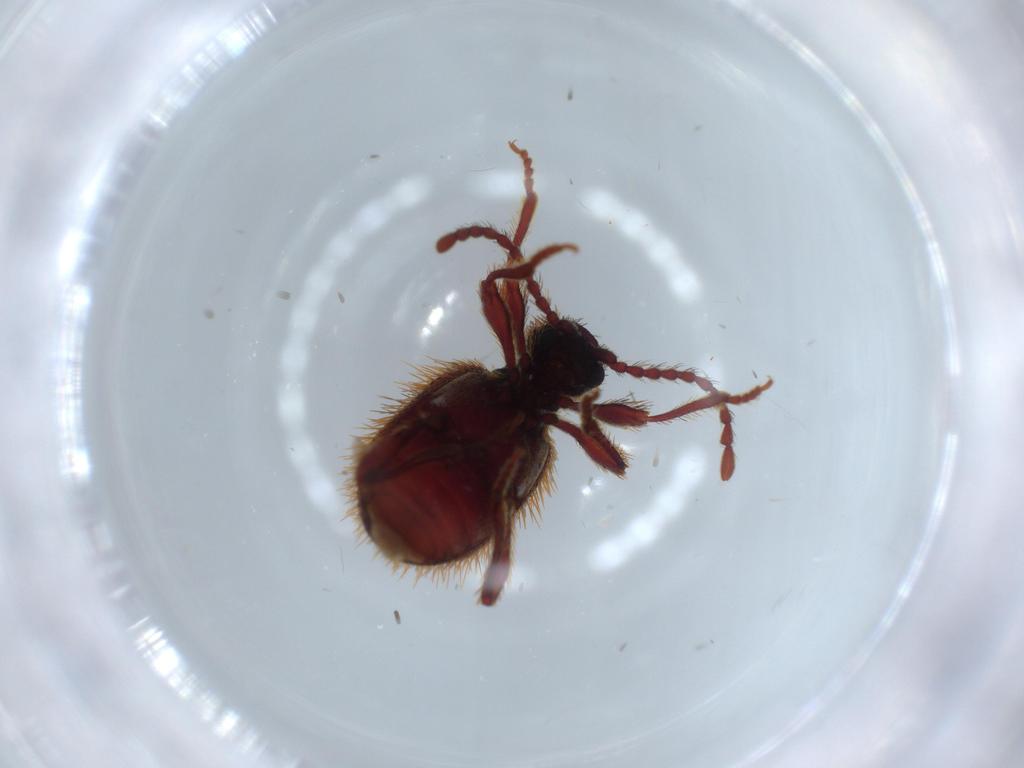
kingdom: Animalia
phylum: Arthropoda
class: Insecta
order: Coleoptera
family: Ptinidae
